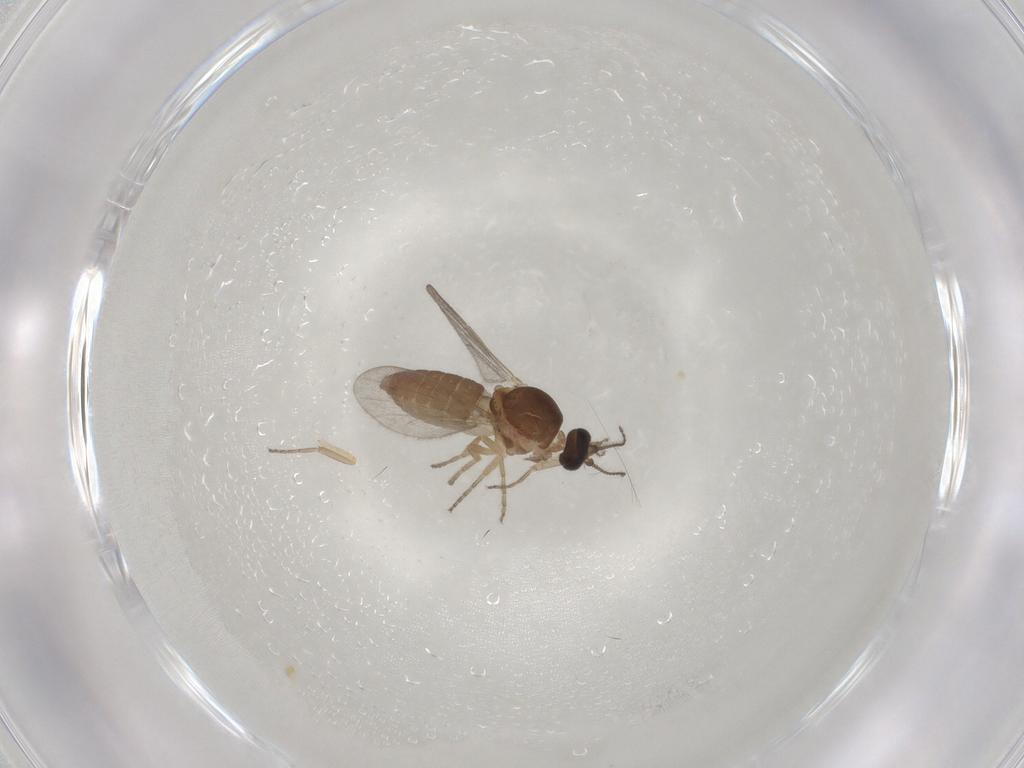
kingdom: Animalia
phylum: Arthropoda
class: Insecta
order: Diptera
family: Ceratopogonidae
